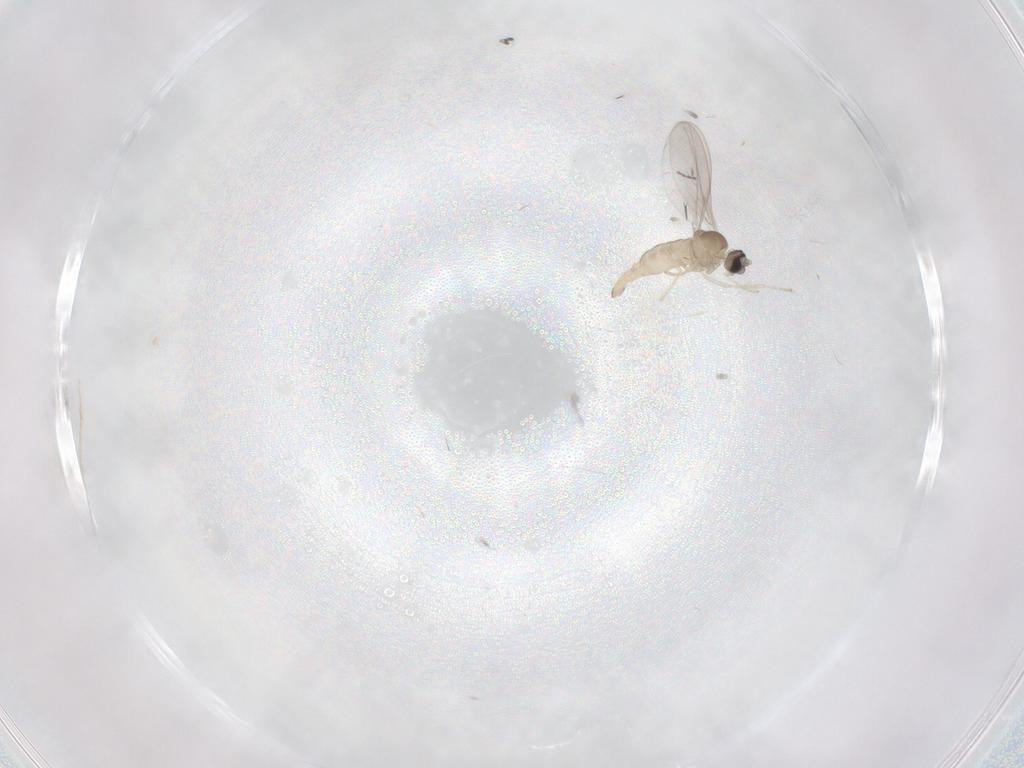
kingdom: Animalia
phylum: Arthropoda
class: Insecta
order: Diptera
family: Cecidomyiidae
